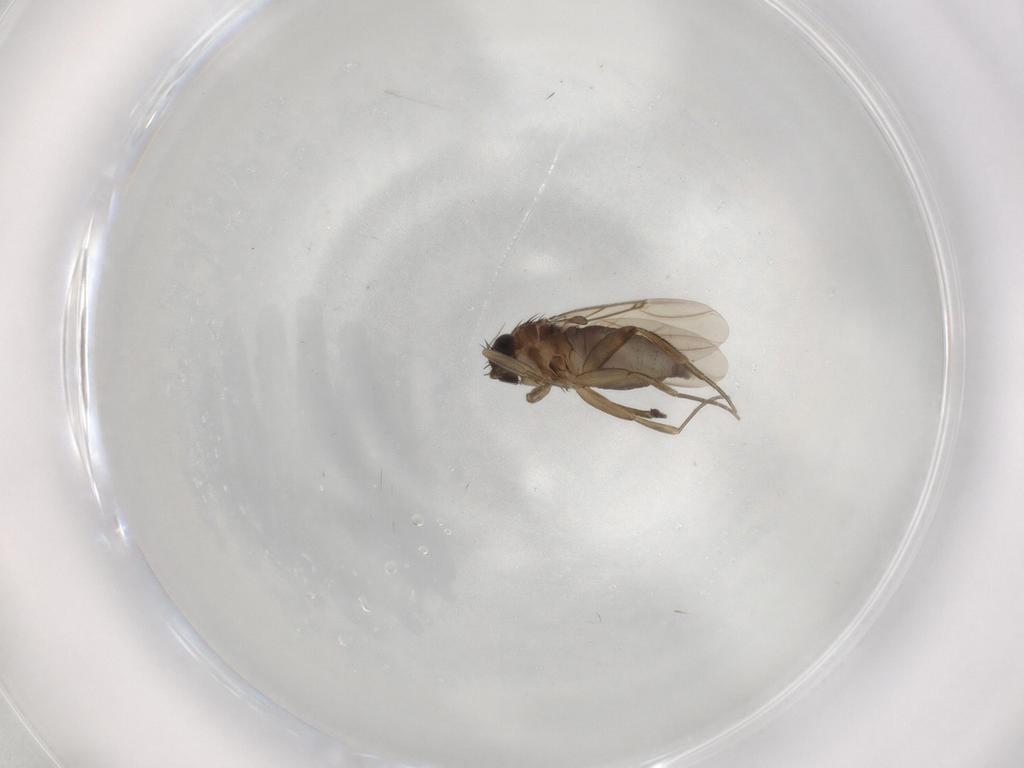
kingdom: Animalia
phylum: Arthropoda
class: Insecta
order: Diptera
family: Phoridae
